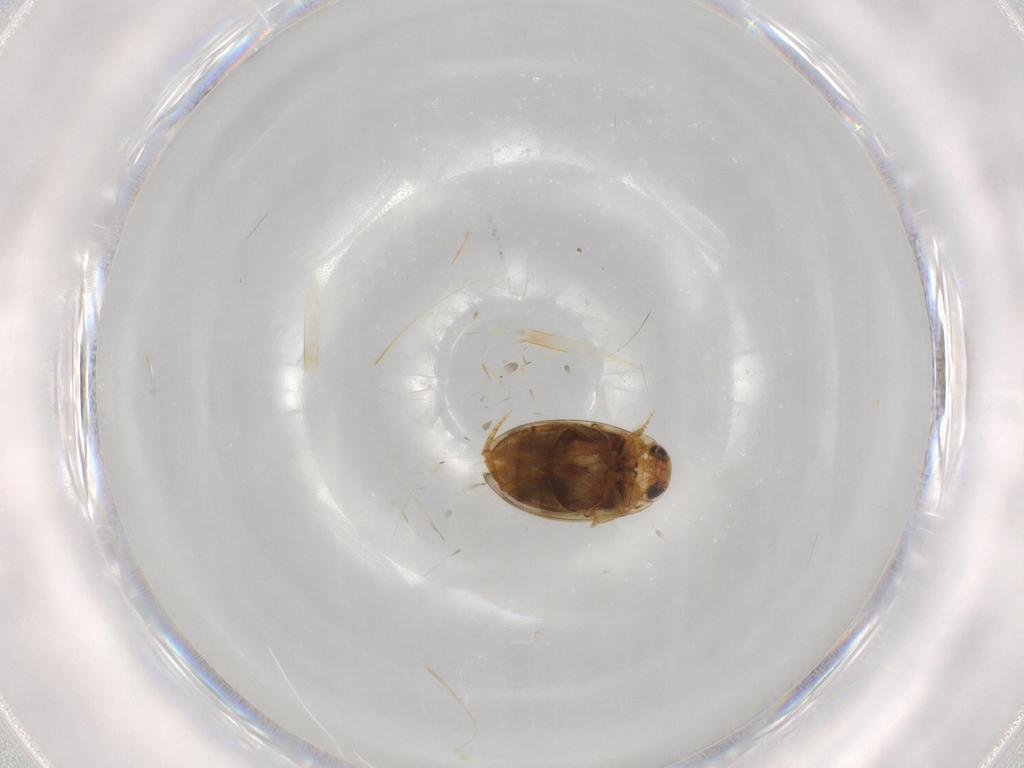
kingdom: Animalia
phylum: Arthropoda
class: Insecta
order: Coleoptera
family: Dytiscidae
